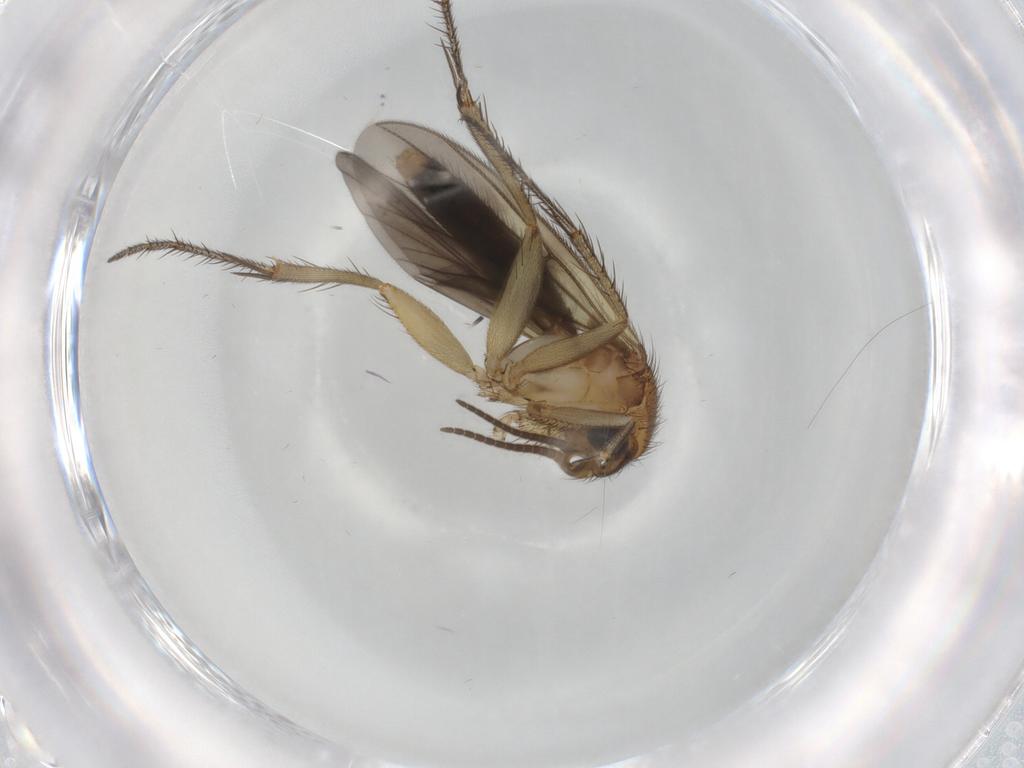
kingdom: Animalia
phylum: Arthropoda
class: Insecta
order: Diptera
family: Mycetophilidae
